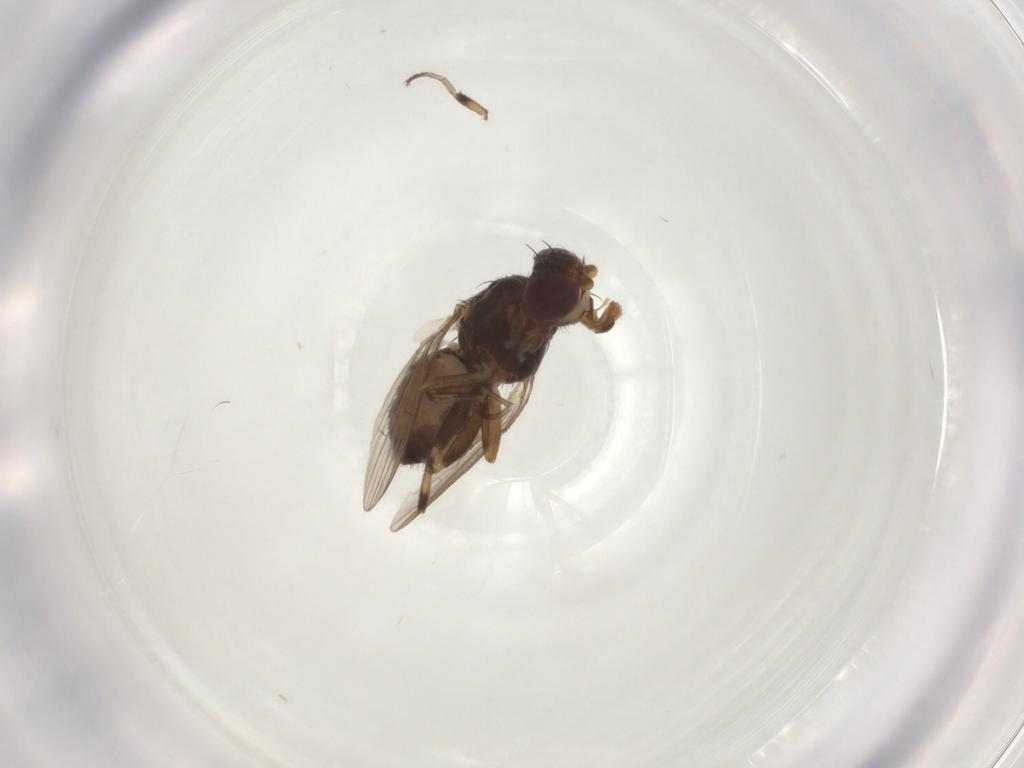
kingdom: Animalia
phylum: Arthropoda
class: Insecta
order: Diptera
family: Heleomyzidae
